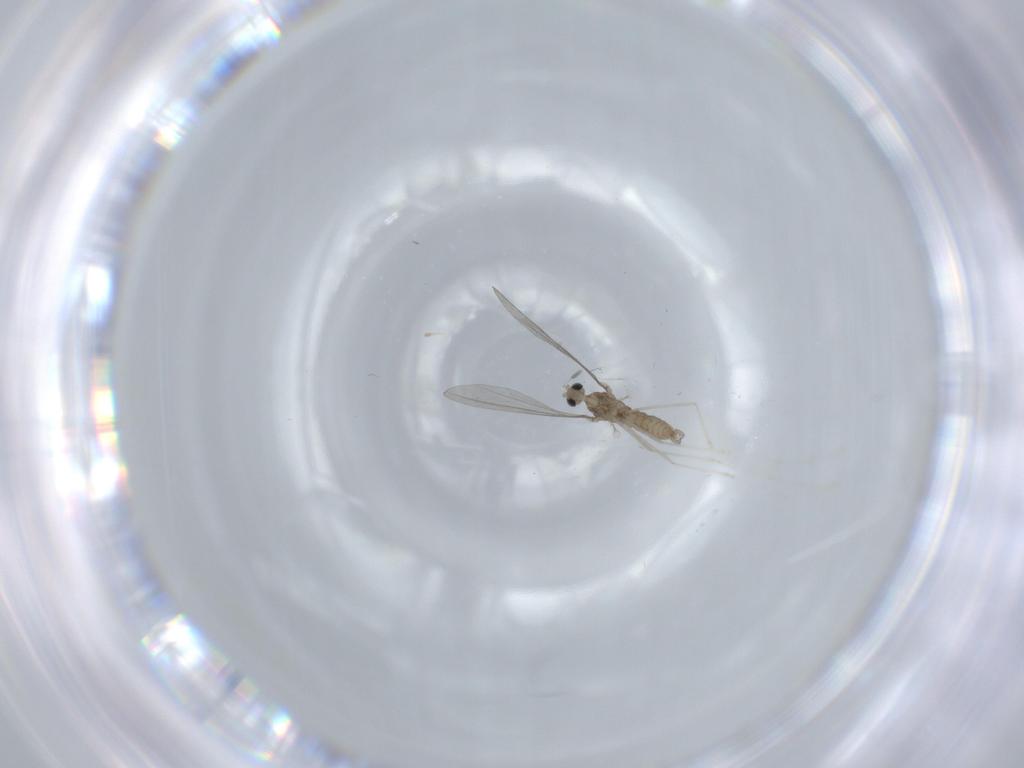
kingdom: Animalia
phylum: Arthropoda
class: Insecta
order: Diptera
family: Cecidomyiidae
